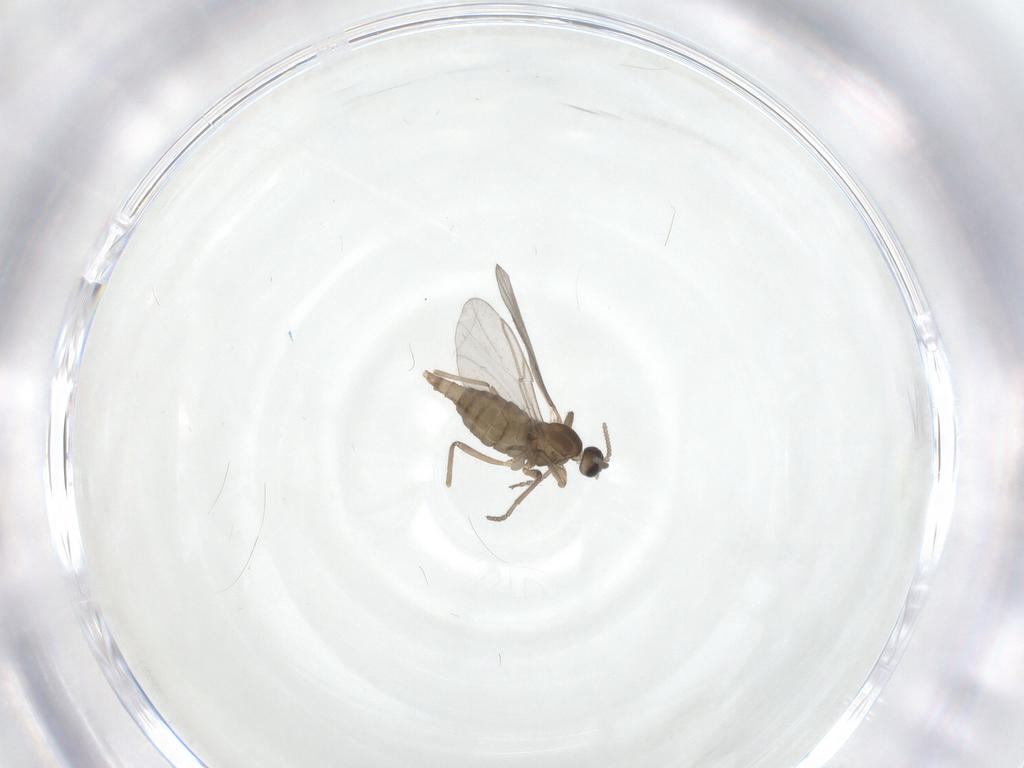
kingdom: Animalia
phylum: Arthropoda
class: Insecta
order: Diptera
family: Cecidomyiidae
